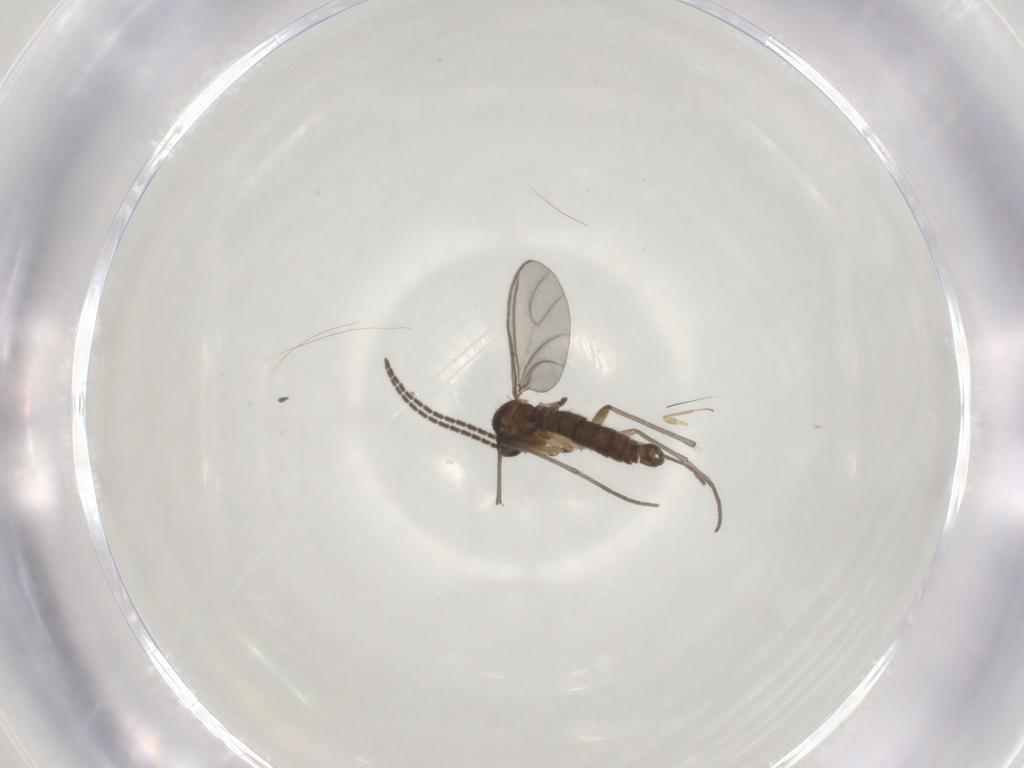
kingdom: Animalia
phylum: Arthropoda
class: Insecta
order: Diptera
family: Sciaridae
